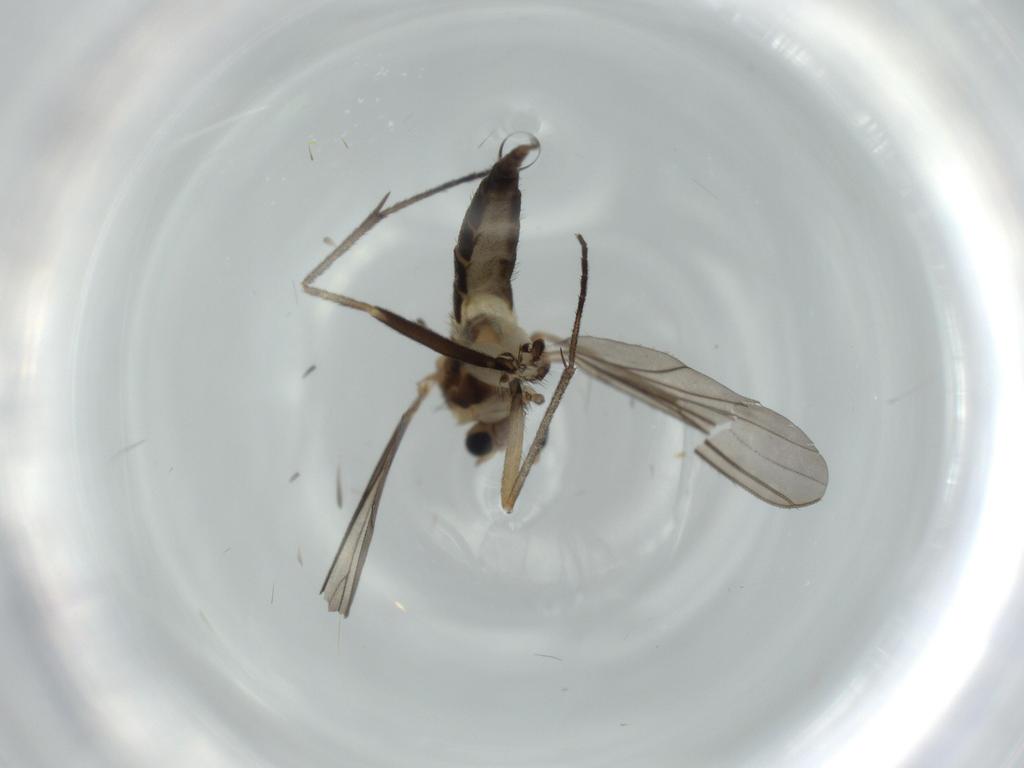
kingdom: Animalia
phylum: Arthropoda
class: Insecta
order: Diptera
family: Sciaridae
